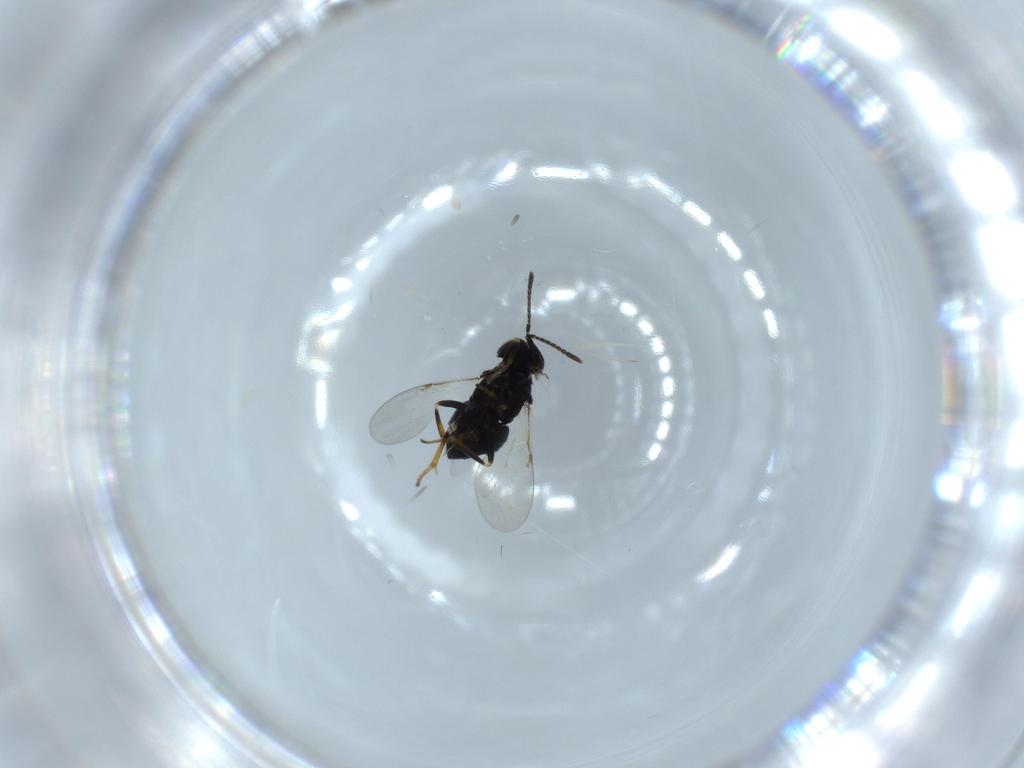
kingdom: Animalia
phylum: Arthropoda
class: Insecta
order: Hymenoptera
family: Encyrtidae
